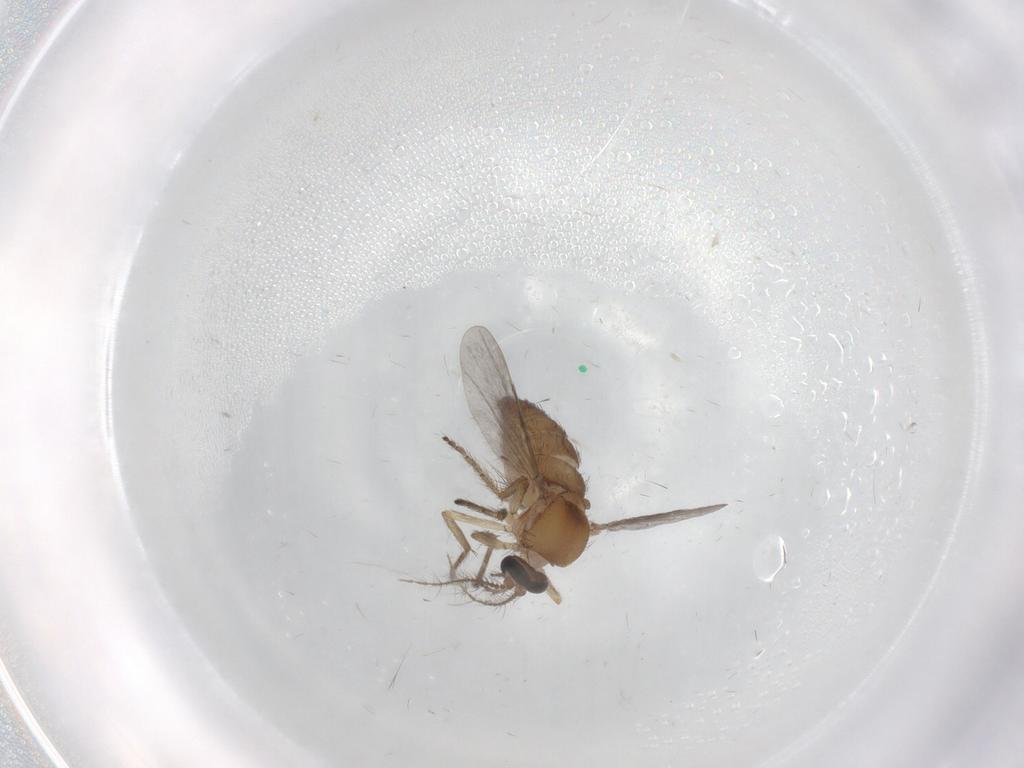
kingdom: Animalia
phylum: Arthropoda
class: Insecta
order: Diptera
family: Ceratopogonidae
